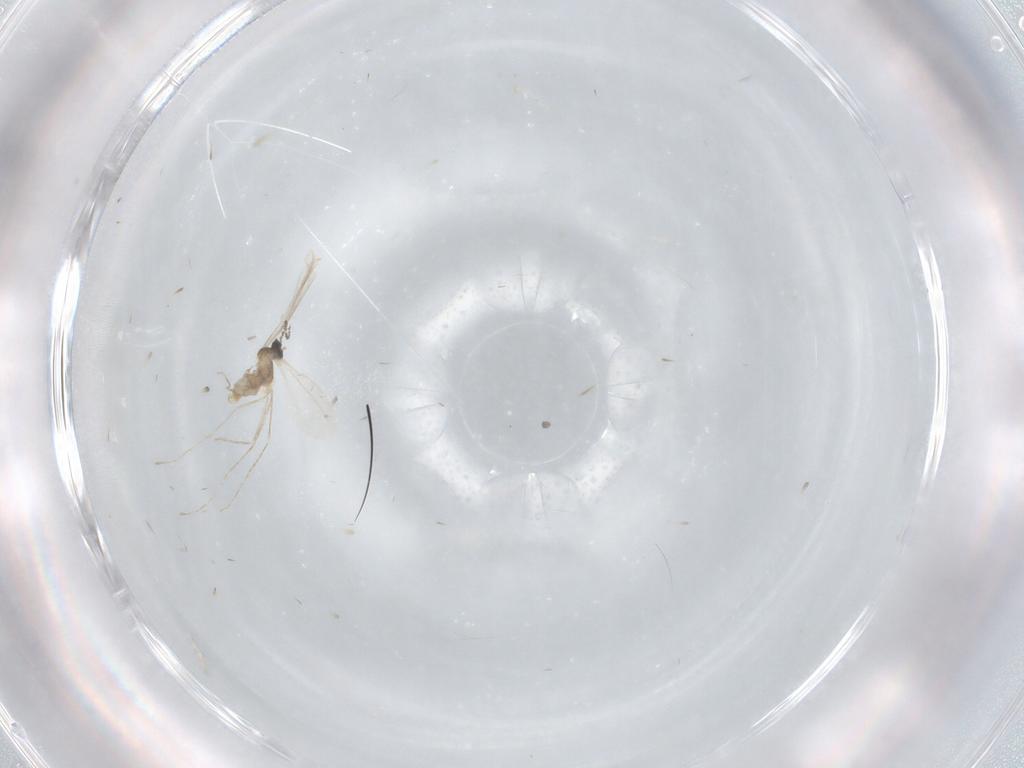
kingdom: Animalia
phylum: Arthropoda
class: Insecta
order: Diptera
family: Cecidomyiidae
